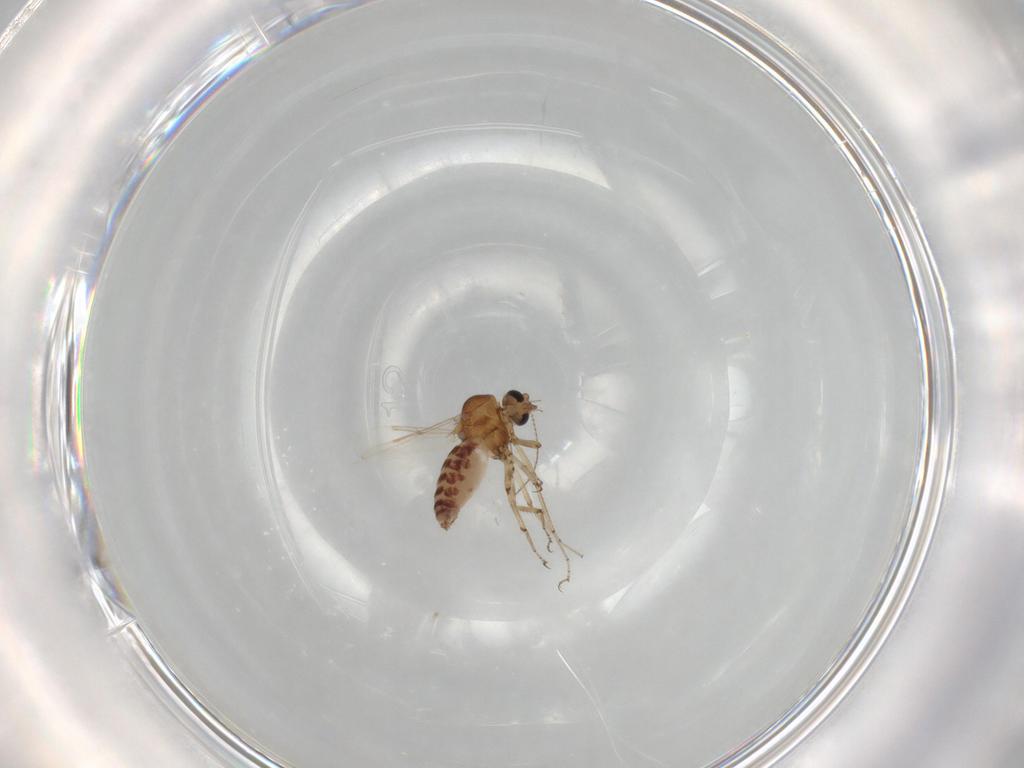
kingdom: Animalia
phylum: Arthropoda
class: Insecta
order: Diptera
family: Ceratopogonidae
